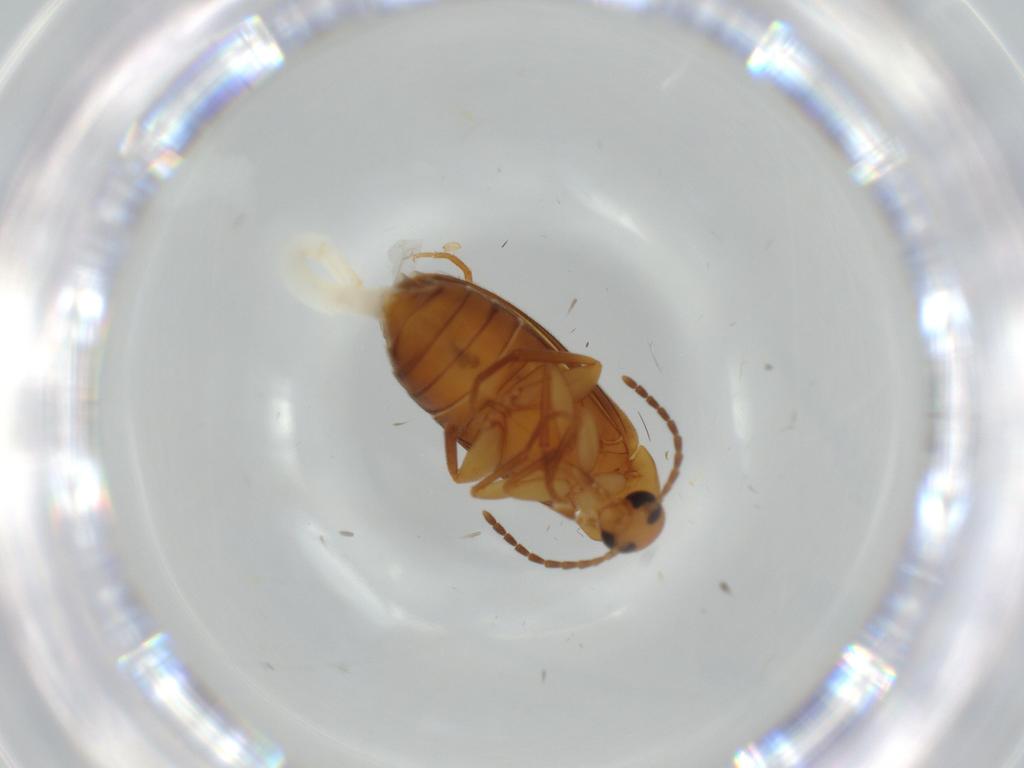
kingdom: Animalia
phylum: Arthropoda
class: Insecta
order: Coleoptera
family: Scraptiidae
